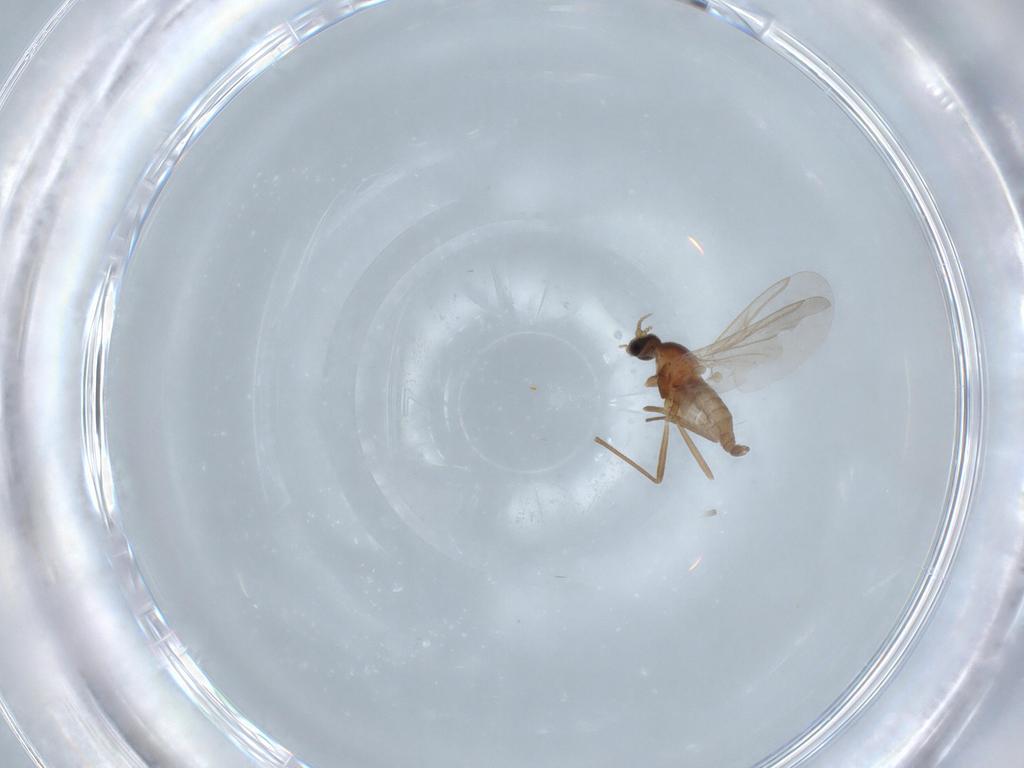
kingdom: Animalia
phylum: Arthropoda
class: Insecta
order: Diptera
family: Cecidomyiidae
